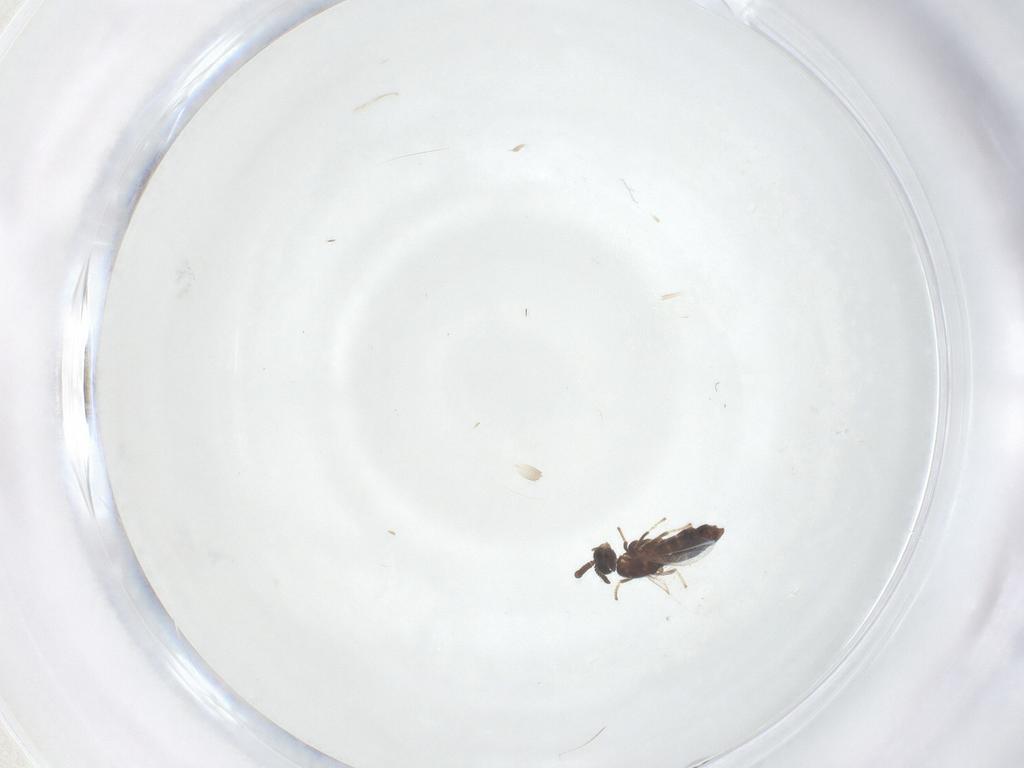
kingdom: Animalia
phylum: Arthropoda
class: Insecta
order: Diptera
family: Scatopsidae
